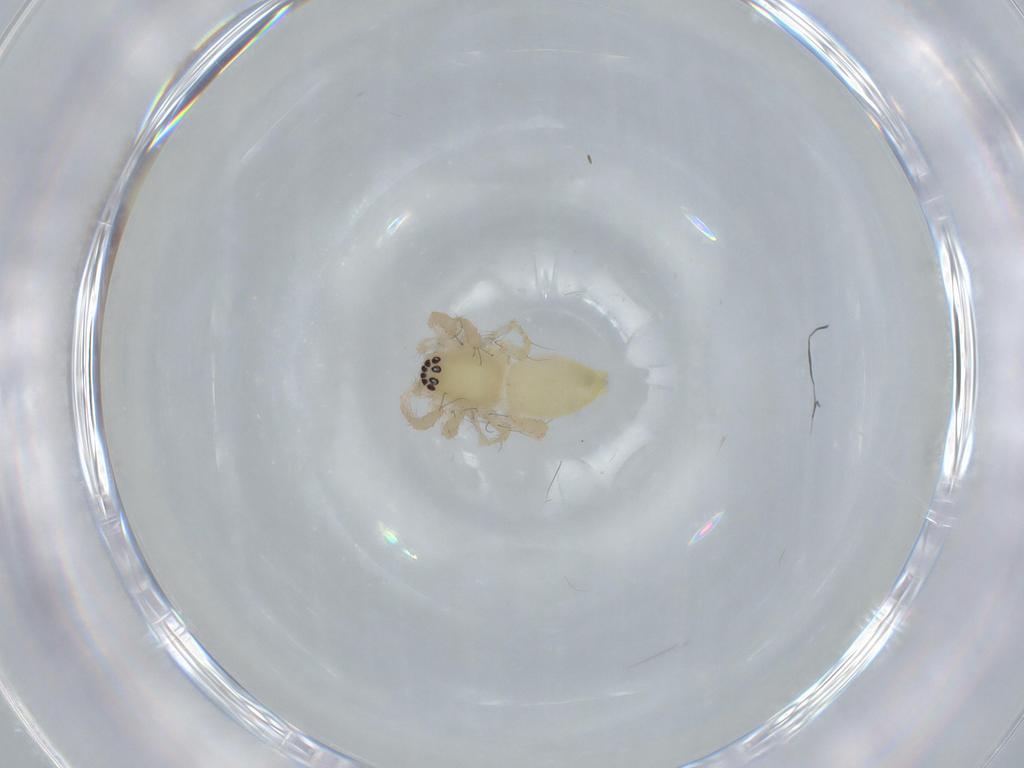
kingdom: Animalia
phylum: Arthropoda
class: Arachnida
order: Araneae
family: Anyphaenidae
